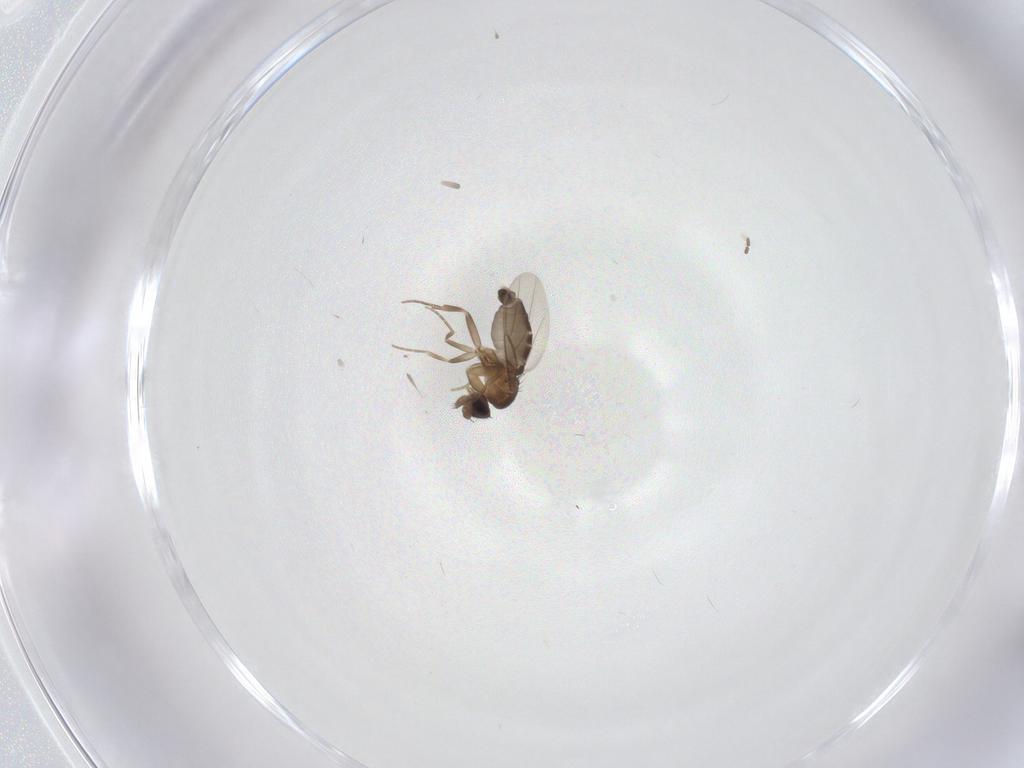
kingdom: Animalia
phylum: Arthropoda
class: Insecta
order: Diptera
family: Phoridae
